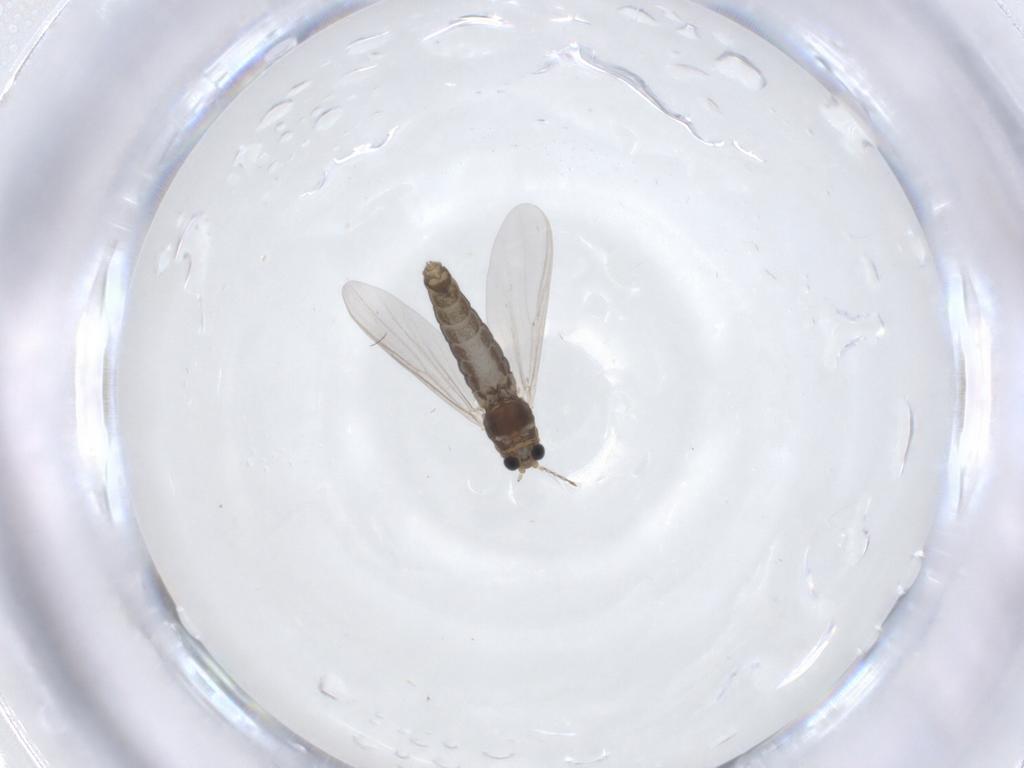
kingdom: Animalia
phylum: Arthropoda
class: Insecta
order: Diptera
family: Chironomidae
